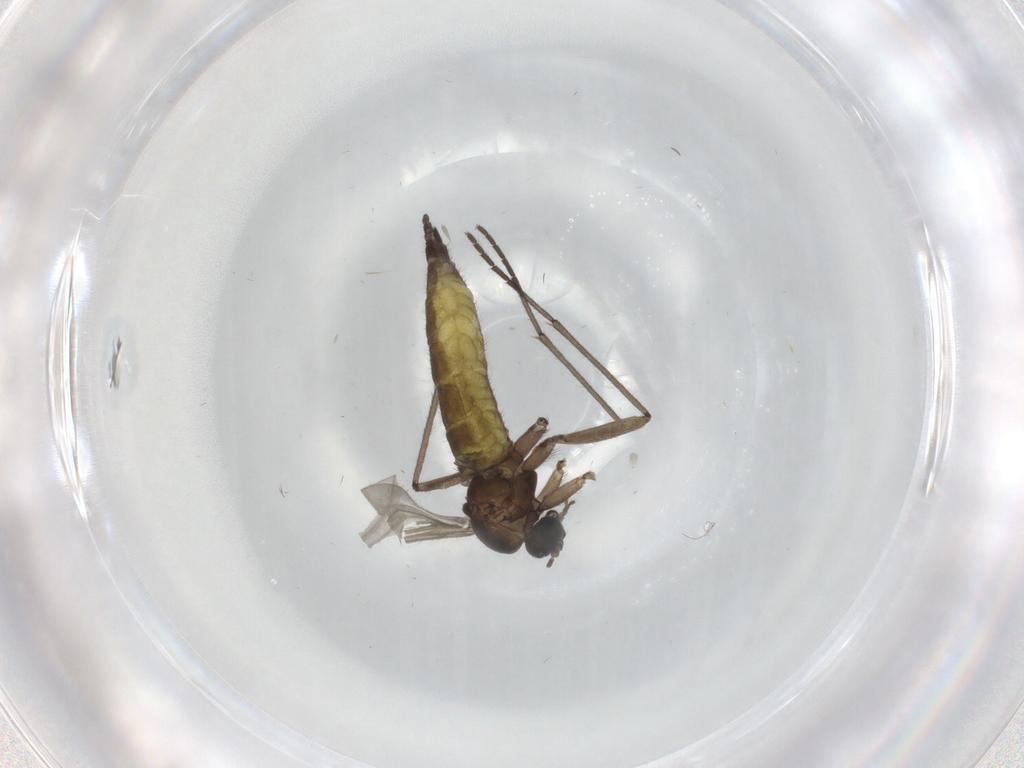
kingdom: Animalia
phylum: Arthropoda
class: Insecta
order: Diptera
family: Sciaridae
